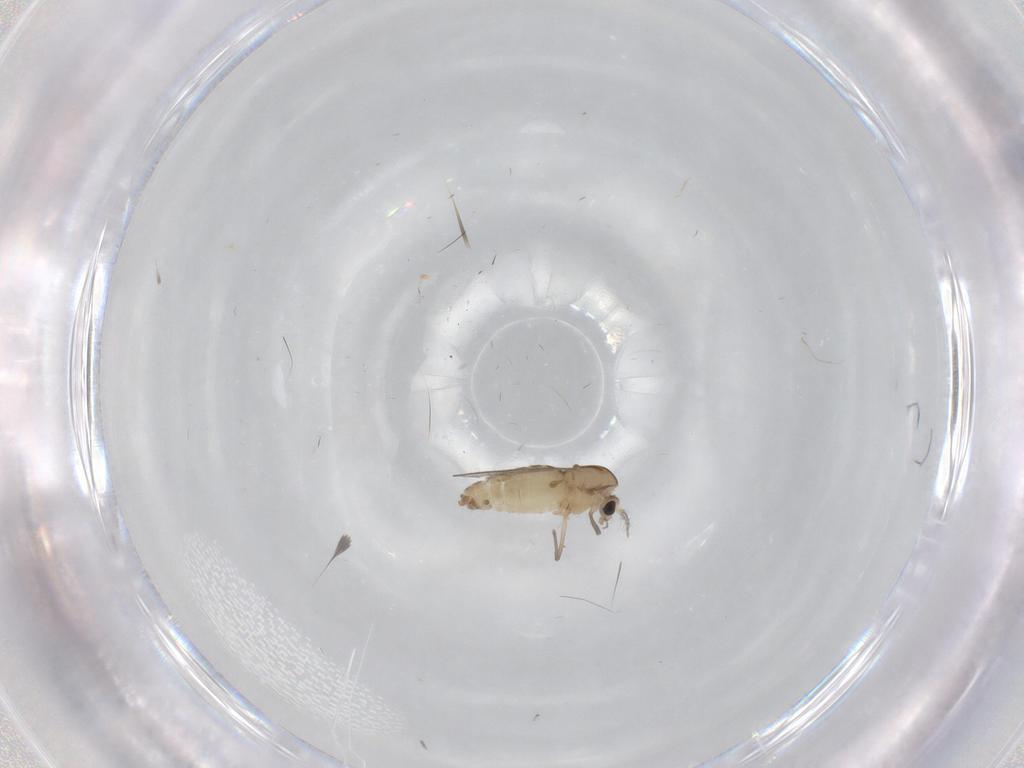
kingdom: Animalia
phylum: Arthropoda
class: Insecta
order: Diptera
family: Chironomidae
